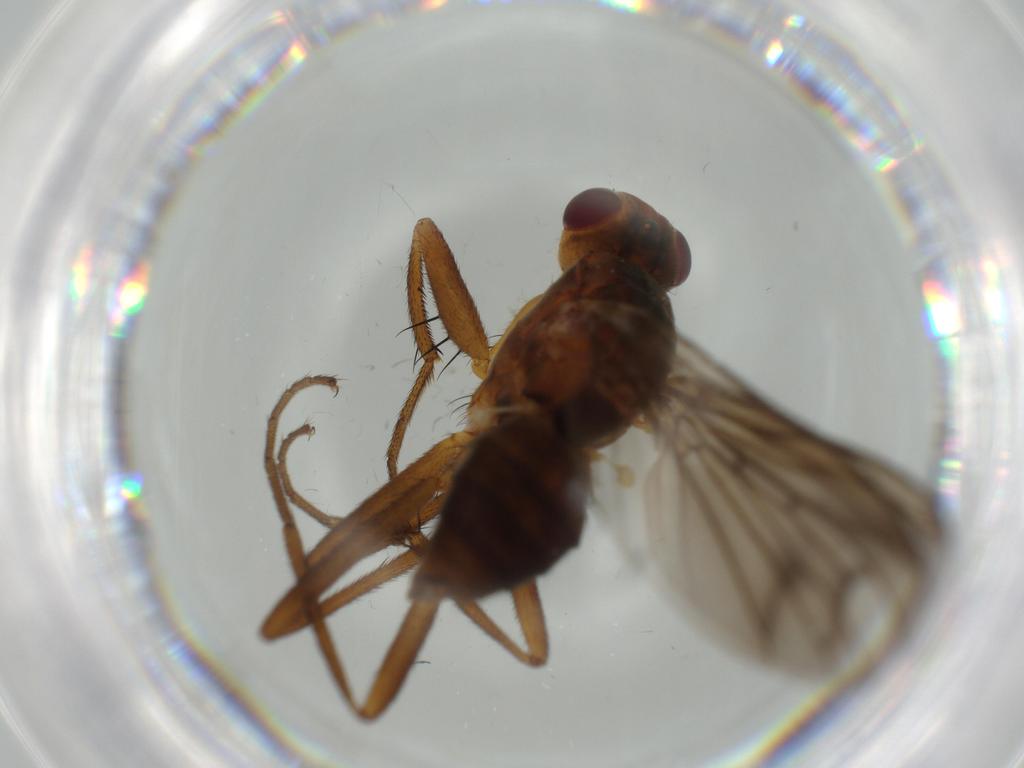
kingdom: Animalia
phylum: Arthropoda
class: Insecta
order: Diptera
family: Scathophagidae
